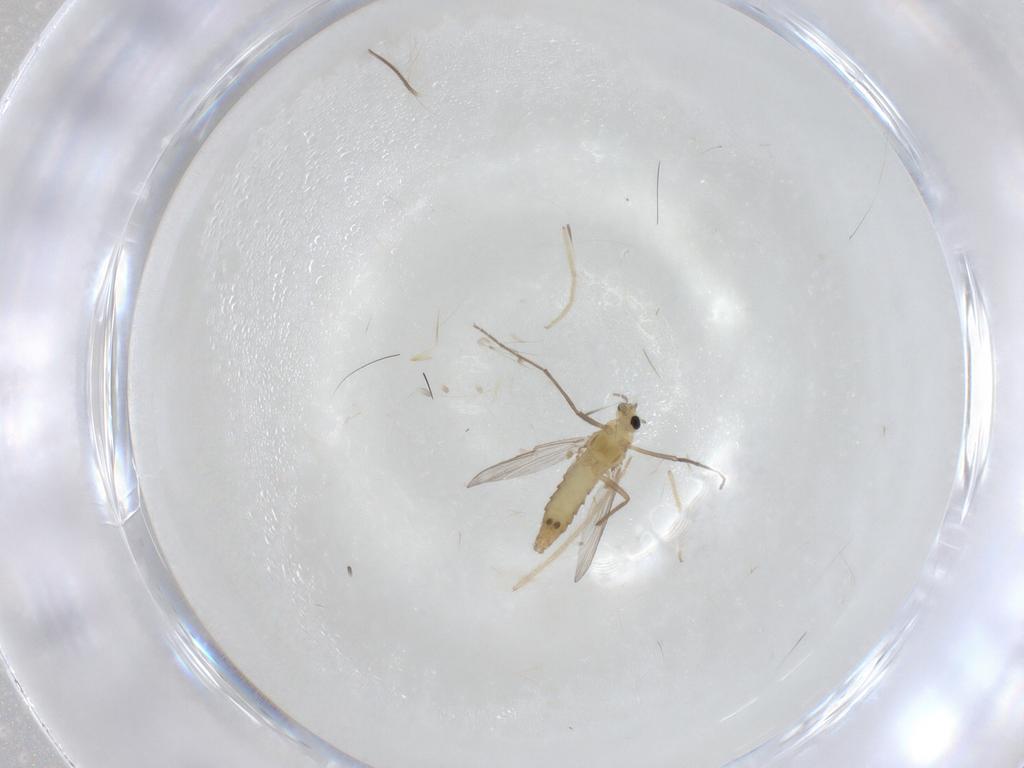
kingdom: Animalia
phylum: Arthropoda
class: Insecta
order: Diptera
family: Chironomidae
